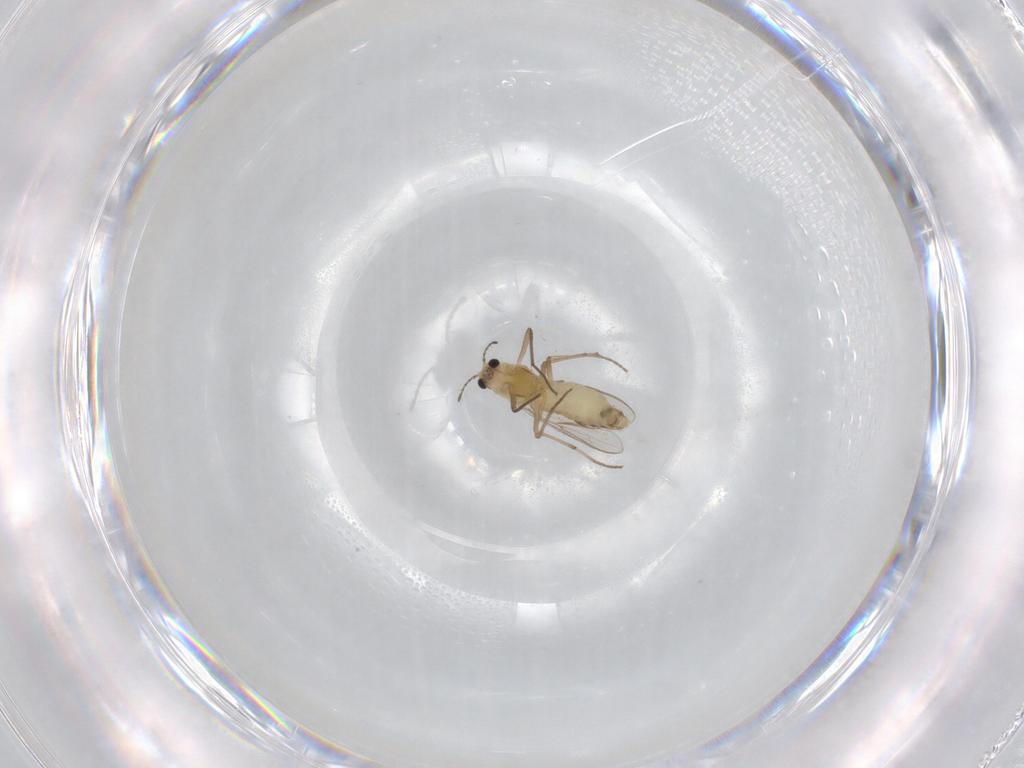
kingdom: Animalia
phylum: Arthropoda
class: Insecta
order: Diptera
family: Chironomidae
